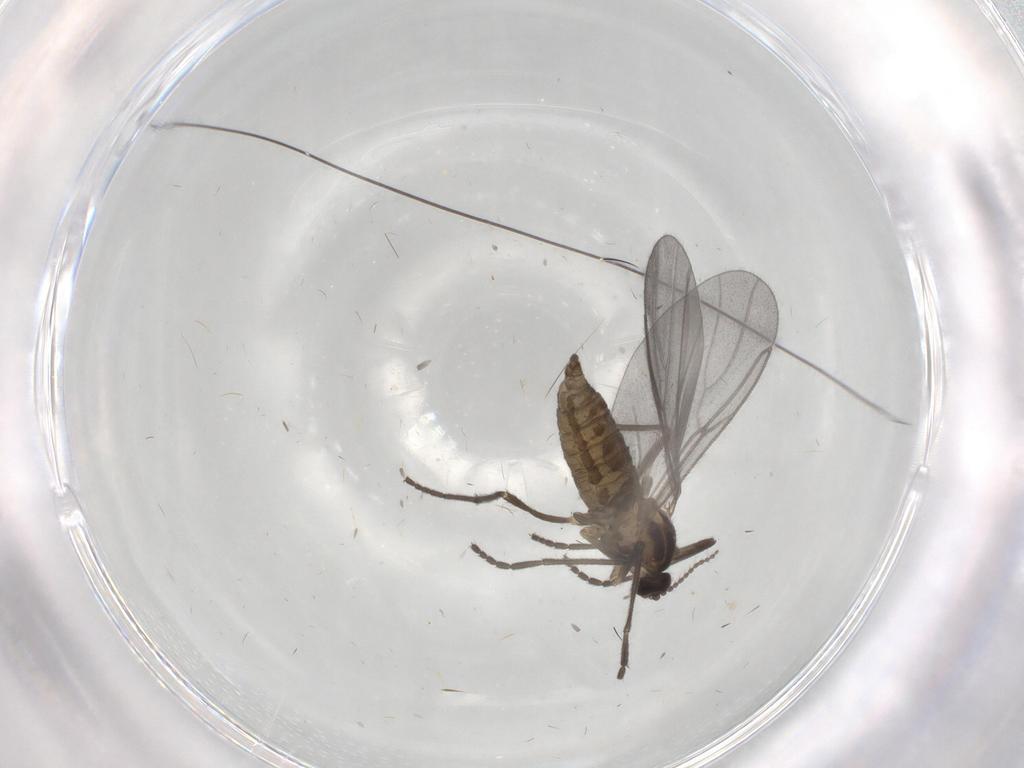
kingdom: Animalia
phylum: Arthropoda
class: Insecta
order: Diptera
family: Cecidomyiidae
